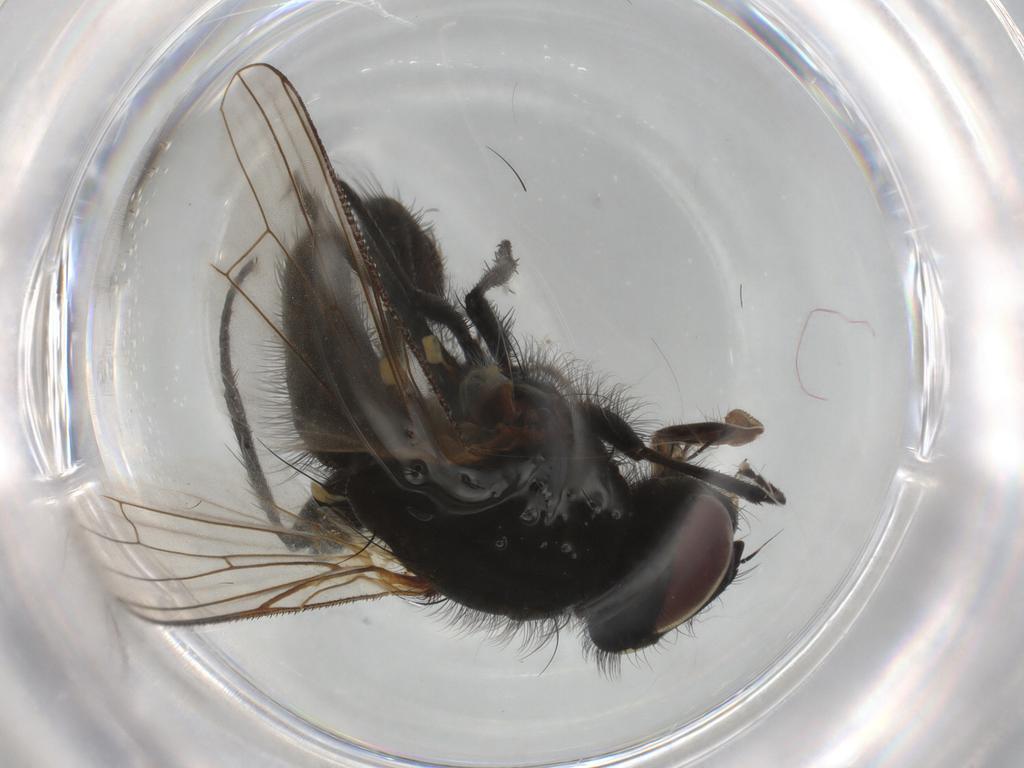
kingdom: Animalia
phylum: Arthropoda
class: Insecta
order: Diptera
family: Anthomyiidae
